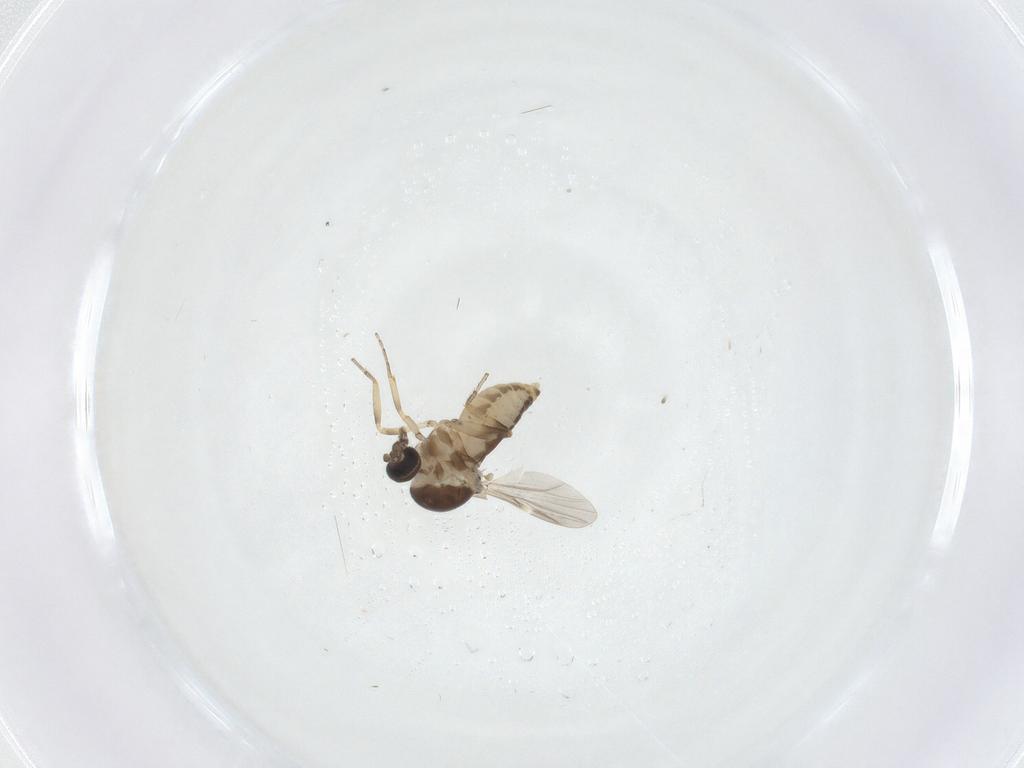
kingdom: Animalia
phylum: Arthropoda
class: Insecta
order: Diptera
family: Ceratopogonidae
